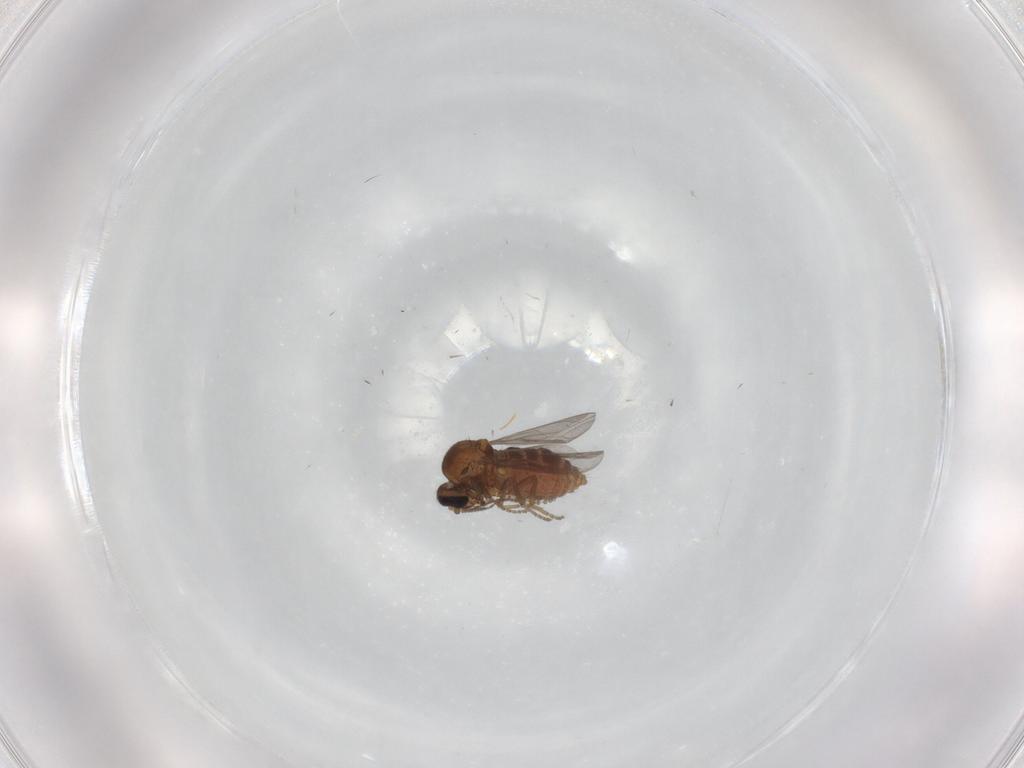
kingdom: Animalia
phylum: Arthropoda
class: Insecta
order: Diptera
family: Ceratopogonidae
